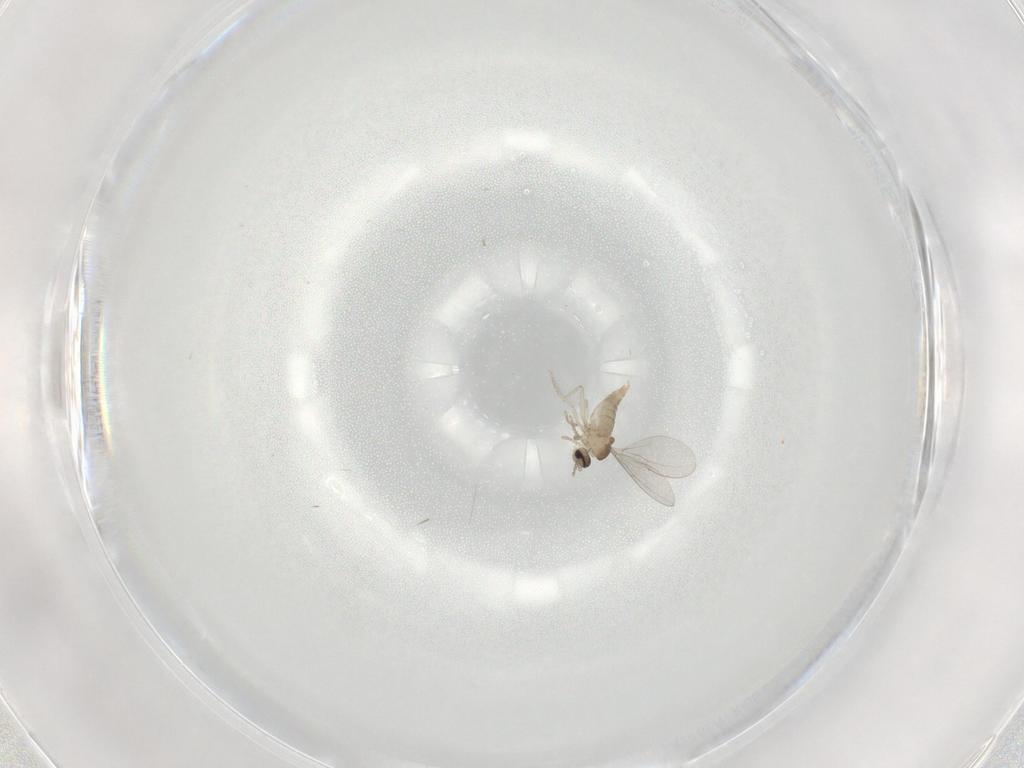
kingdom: Animalia
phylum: Arthropoda
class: Insecta
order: Diptera
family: Cecidomyiidae
